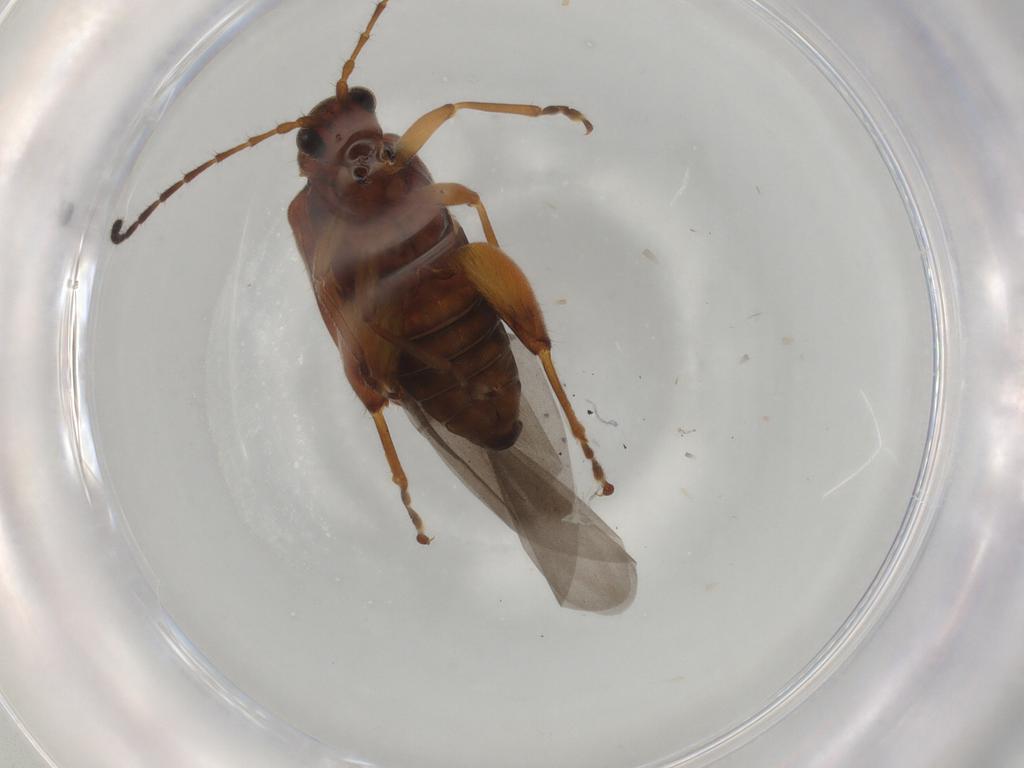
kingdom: Animalia
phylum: Arthropoda
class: Insecta
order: Coleoptera
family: Chrysomelidae
